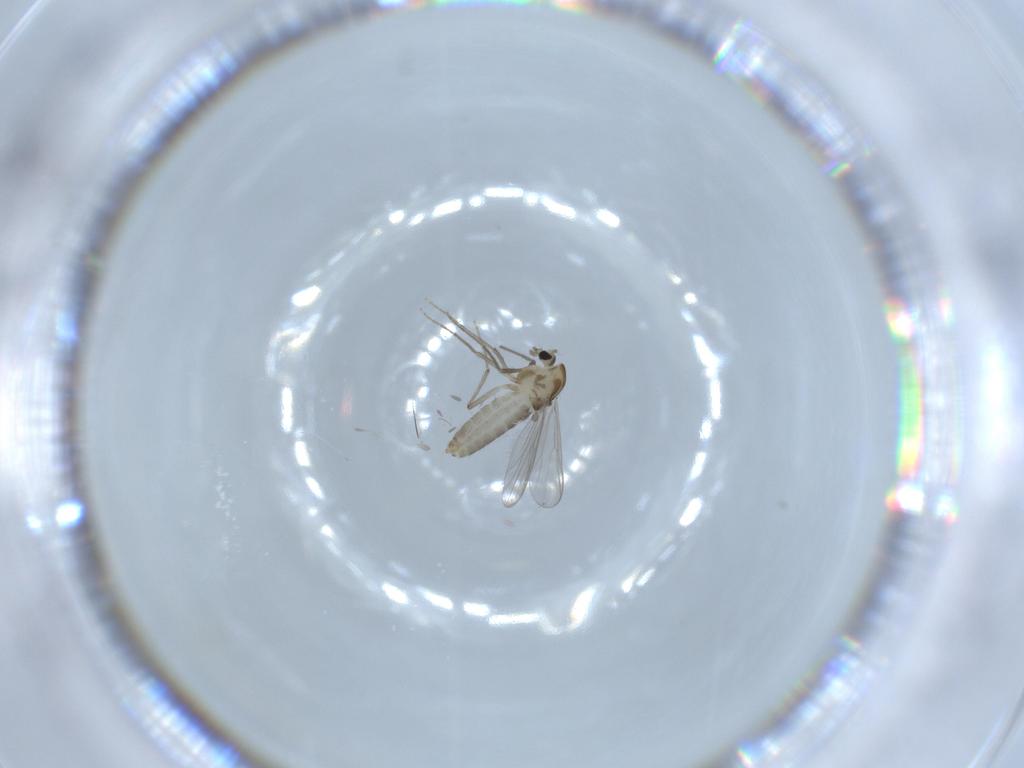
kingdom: Animalia
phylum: Arthropoda
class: Insecta
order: Diptera
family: Chironomidae
